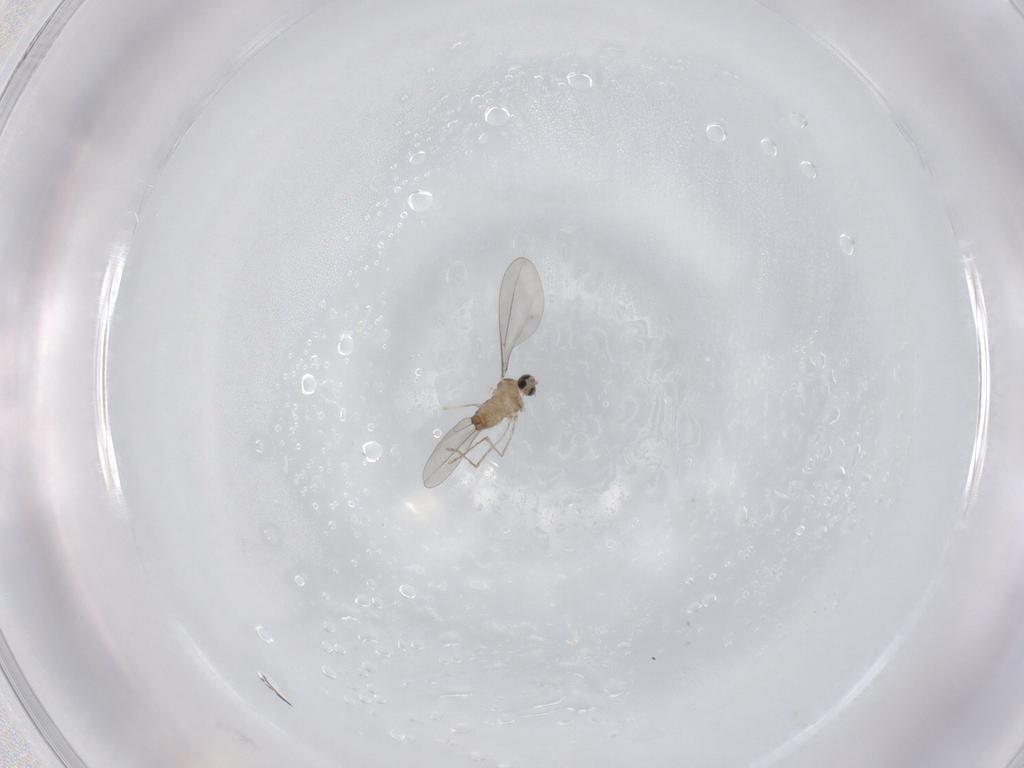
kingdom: Animalia
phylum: Arthropoda
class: Insecta
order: Diptera
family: Cecidomyiidae
